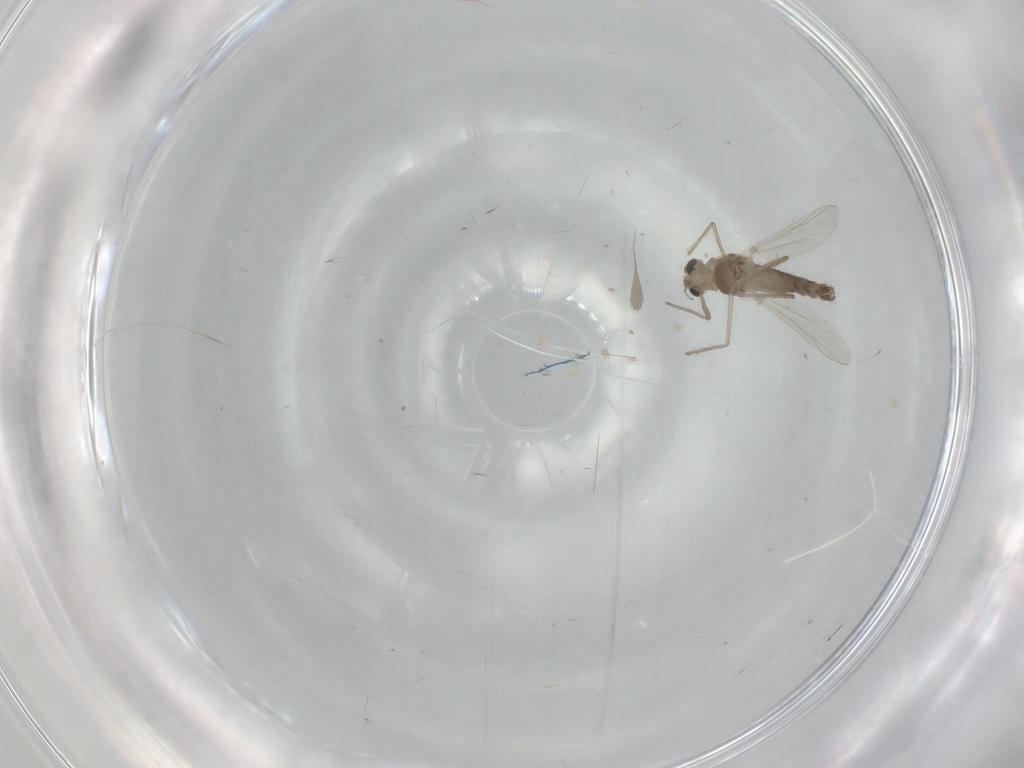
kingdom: Animalia
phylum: Arthropoda
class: Insecta
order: Diptera
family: Chironomidae
